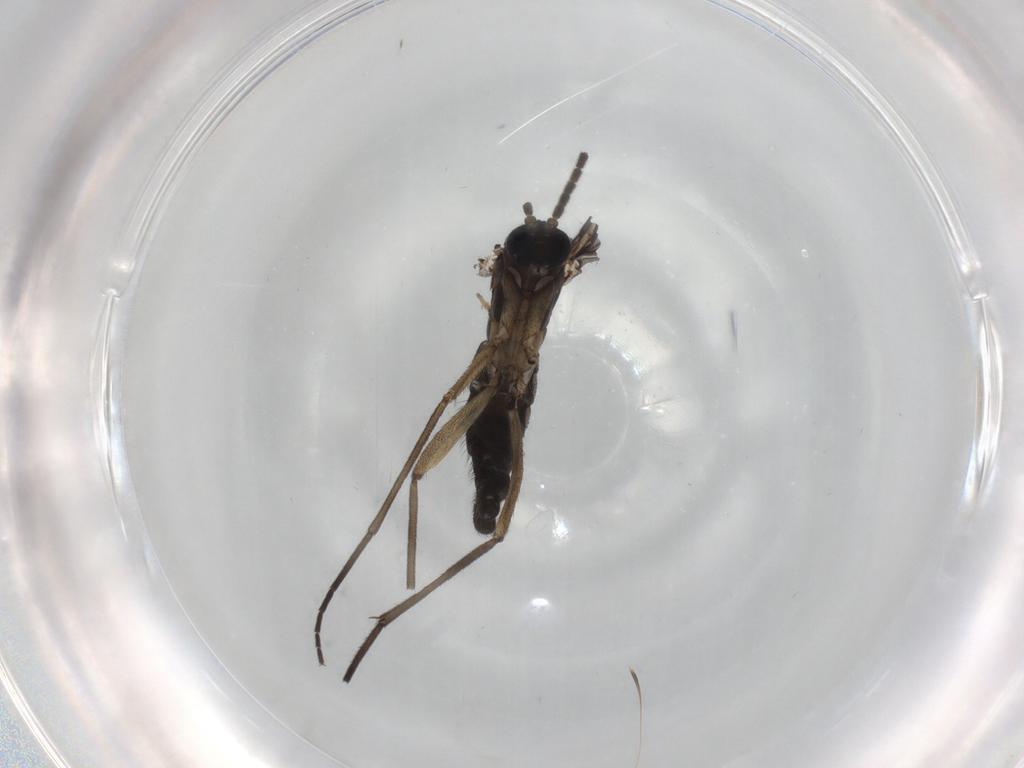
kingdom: Animalia
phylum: Arthropoda
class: Insecta
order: Diptera
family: Sciaridae
